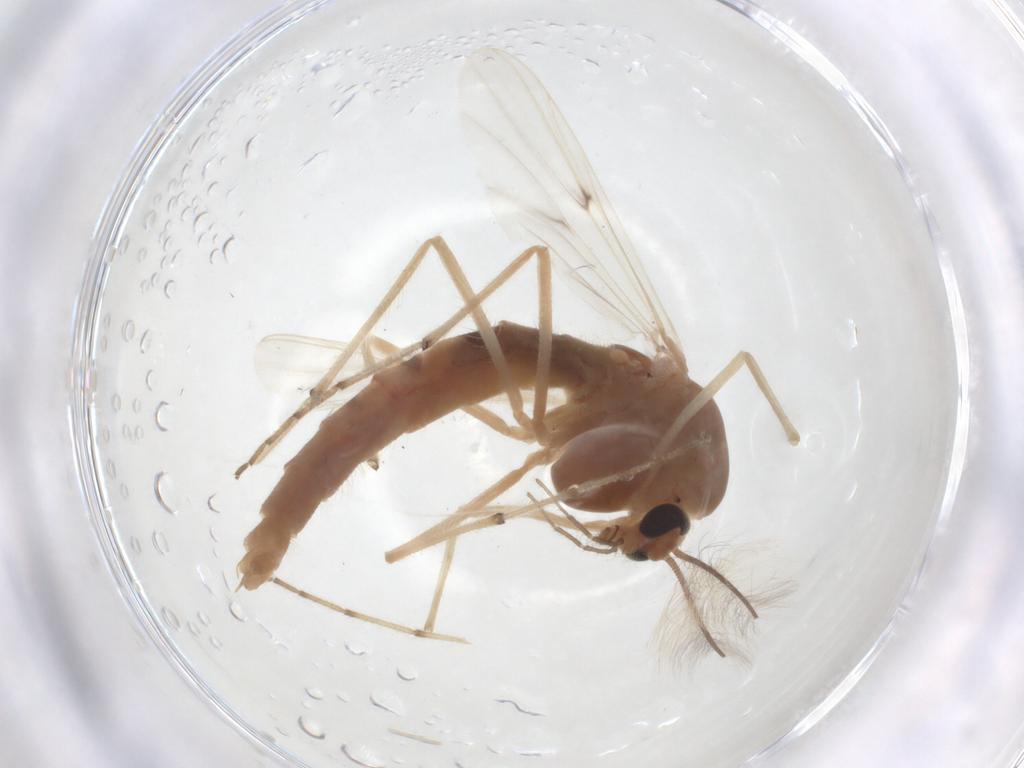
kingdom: Animalia
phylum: Arthropoda
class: Insecta
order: Diptera
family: Chironomidae
